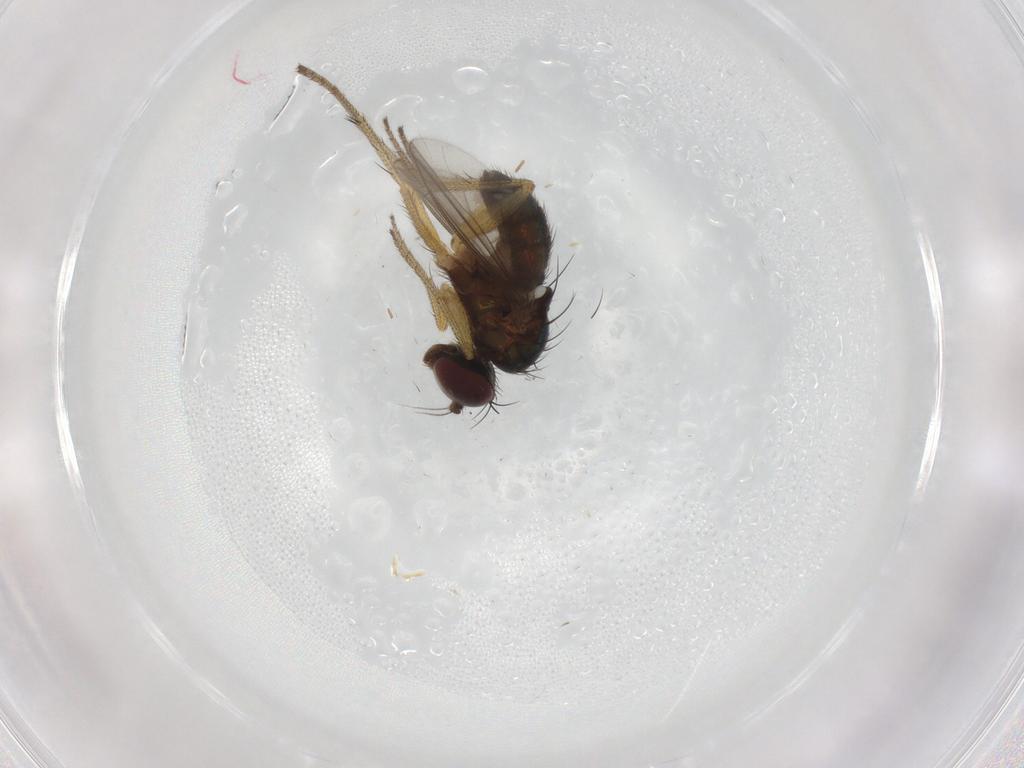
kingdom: Animalia
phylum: Arthropoda
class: Insecta
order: Diptera
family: Dolichopodidae
